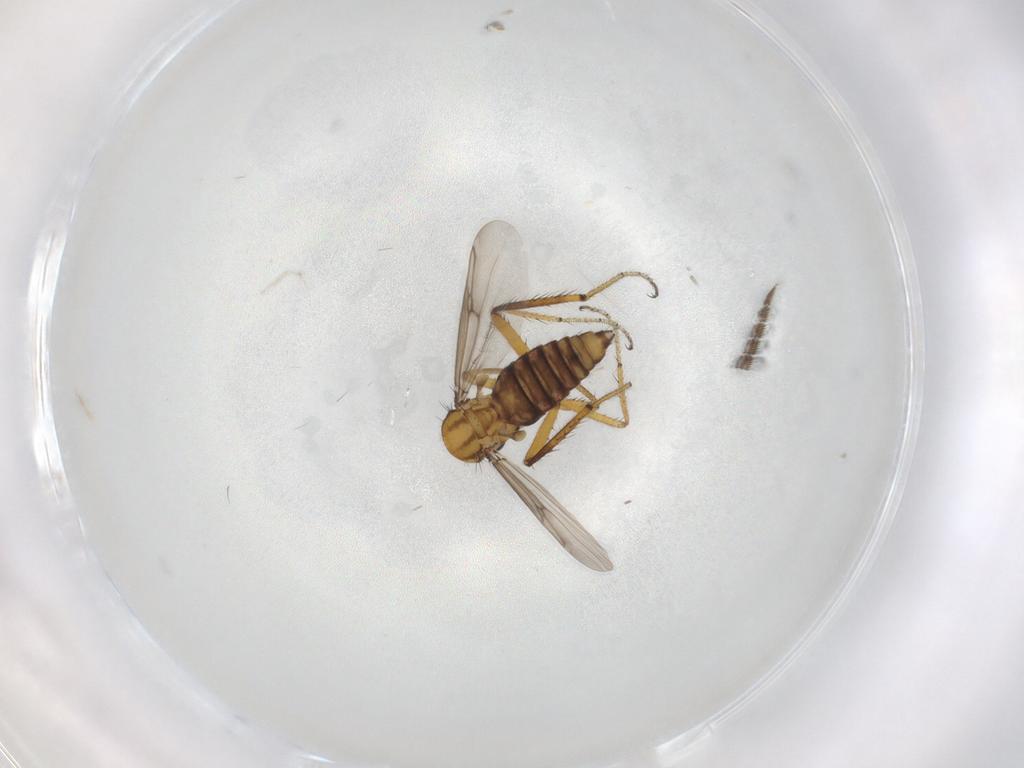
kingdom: Animalia
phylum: Arthropoda
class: Insecta
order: Diptera
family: Ceratopogonidae
